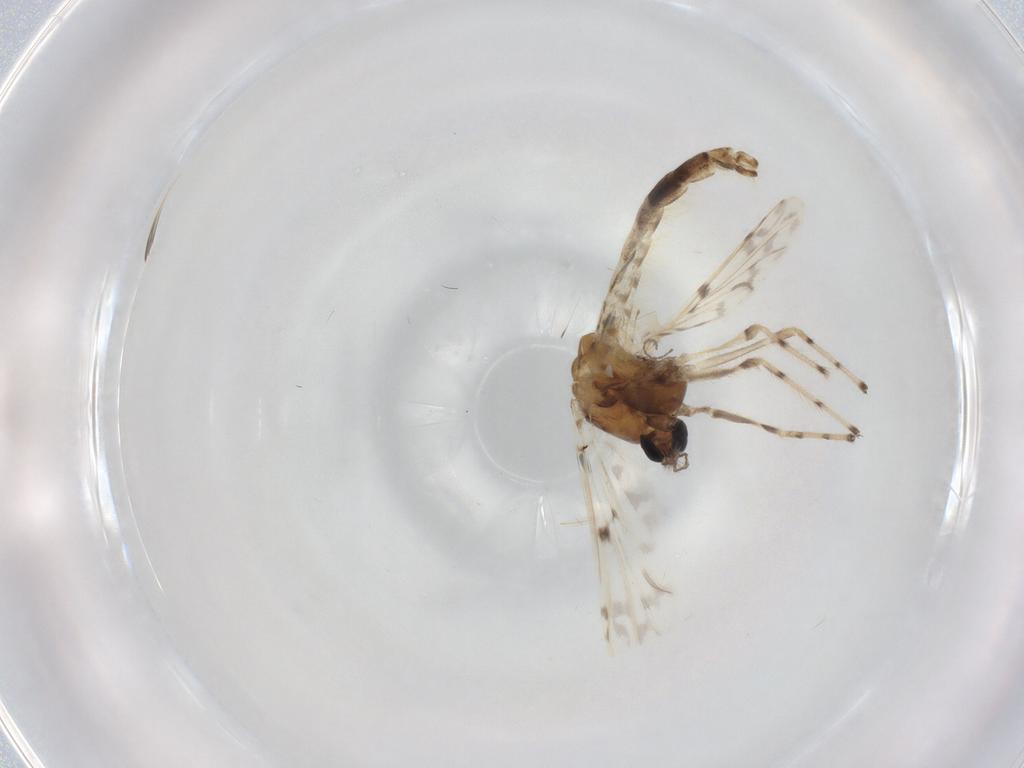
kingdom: Animalia
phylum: Arthropoda
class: Insecta
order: Diptera
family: Chironomidae
